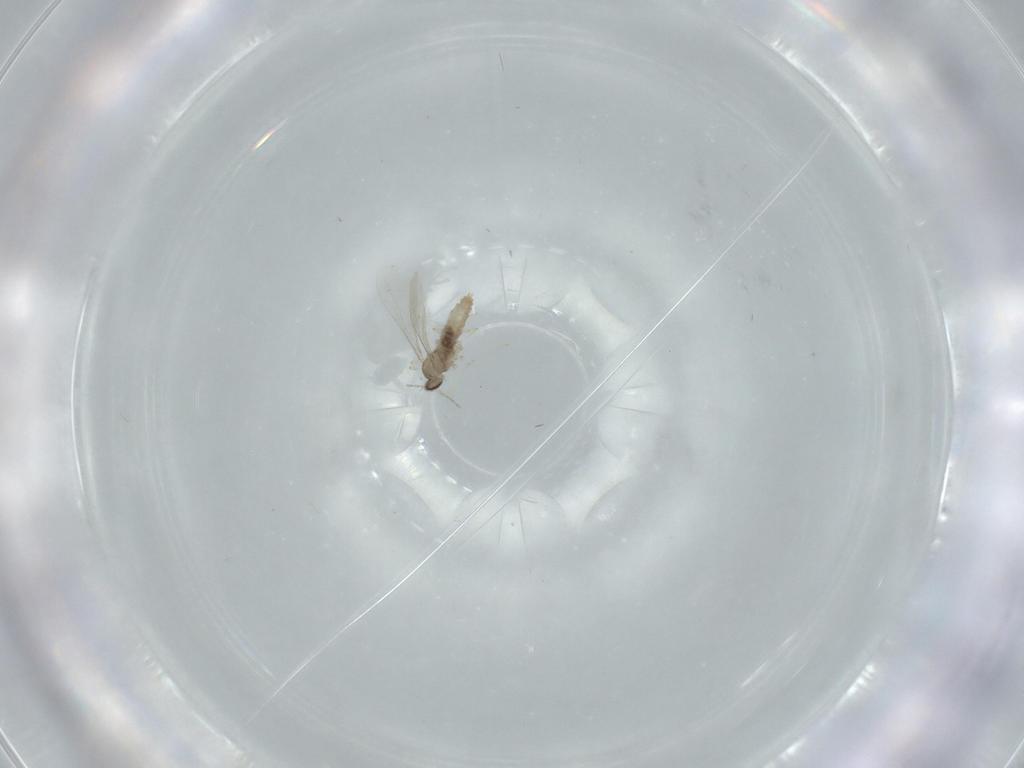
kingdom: Animalia
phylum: Arthropoda
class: Insecta
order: Diptera
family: Cecidomyiidae
